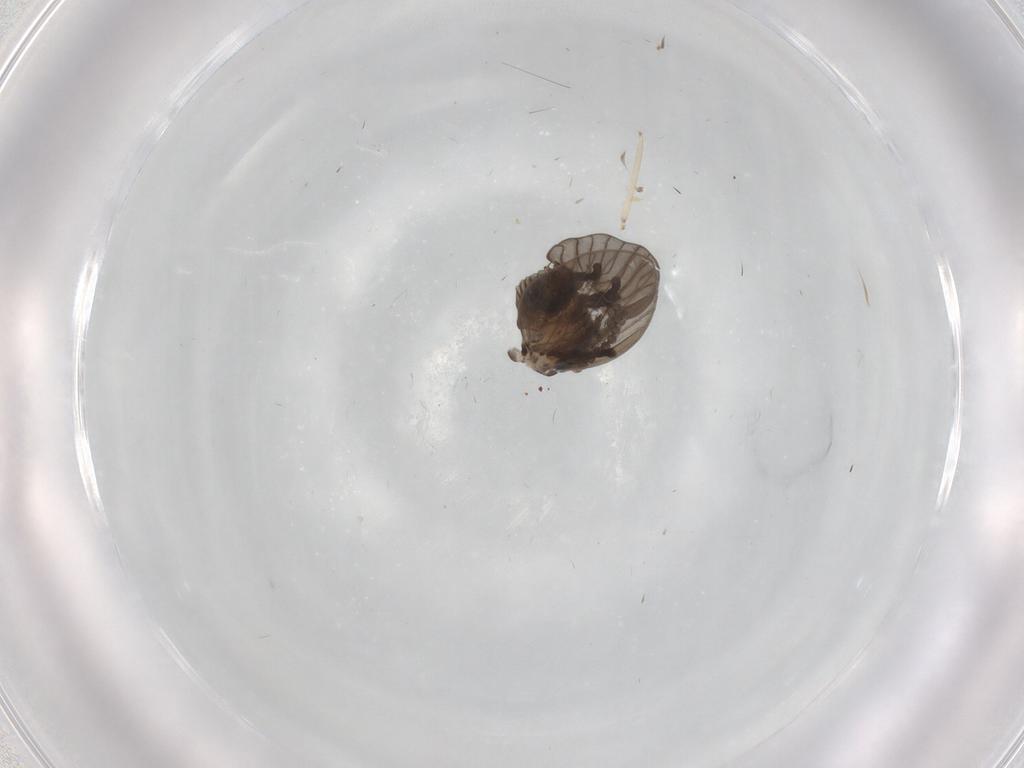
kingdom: Animalia
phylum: Arthropoda
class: Insecta
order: Diptera
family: Psychodidae
